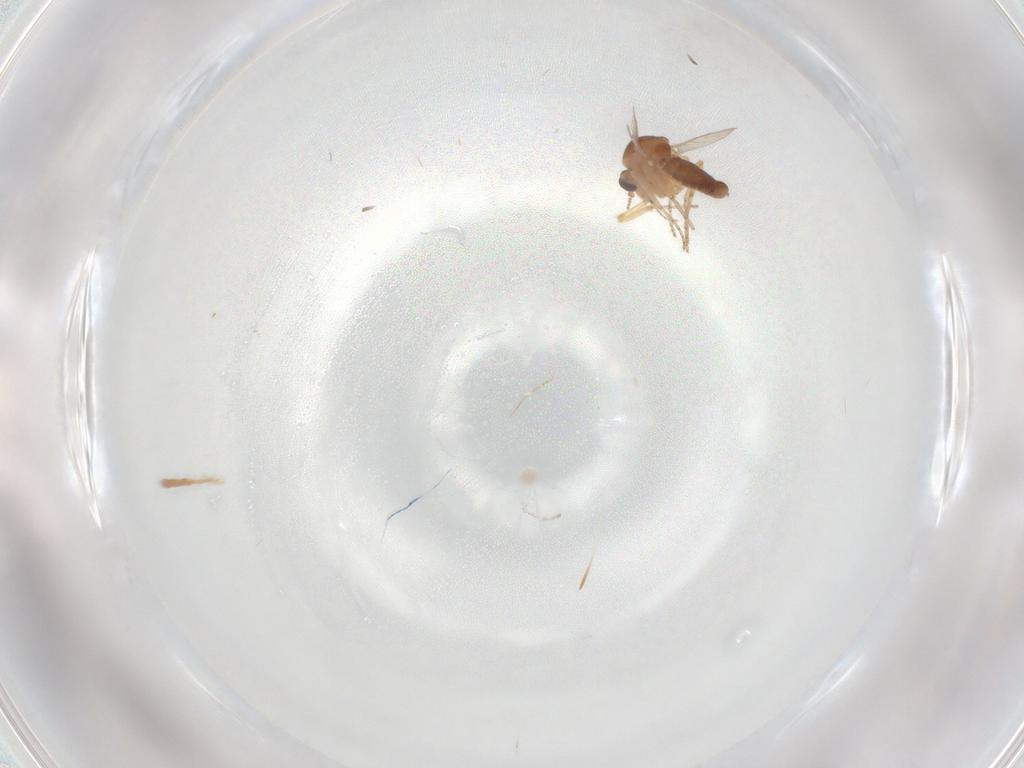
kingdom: Animalia
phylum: Arthropoda
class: Insecta
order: Diptera
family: Ceratopogonidae
